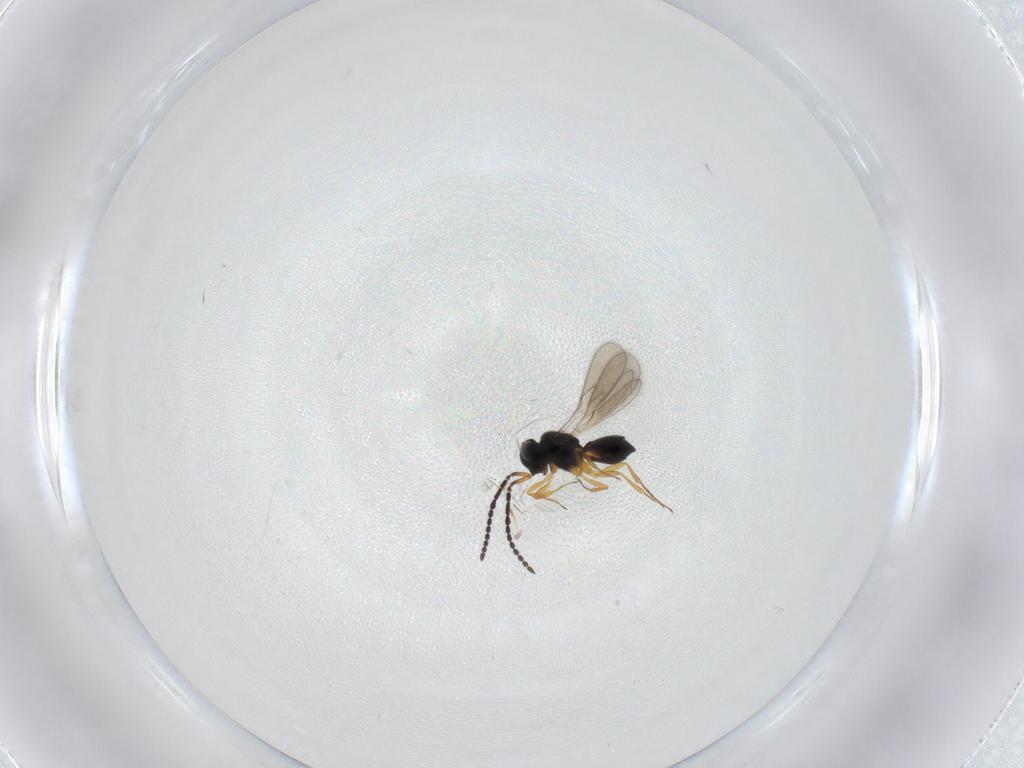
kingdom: Animalia
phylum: Arthropoda
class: Insecta
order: Hymenoptera
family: Scelionidae
